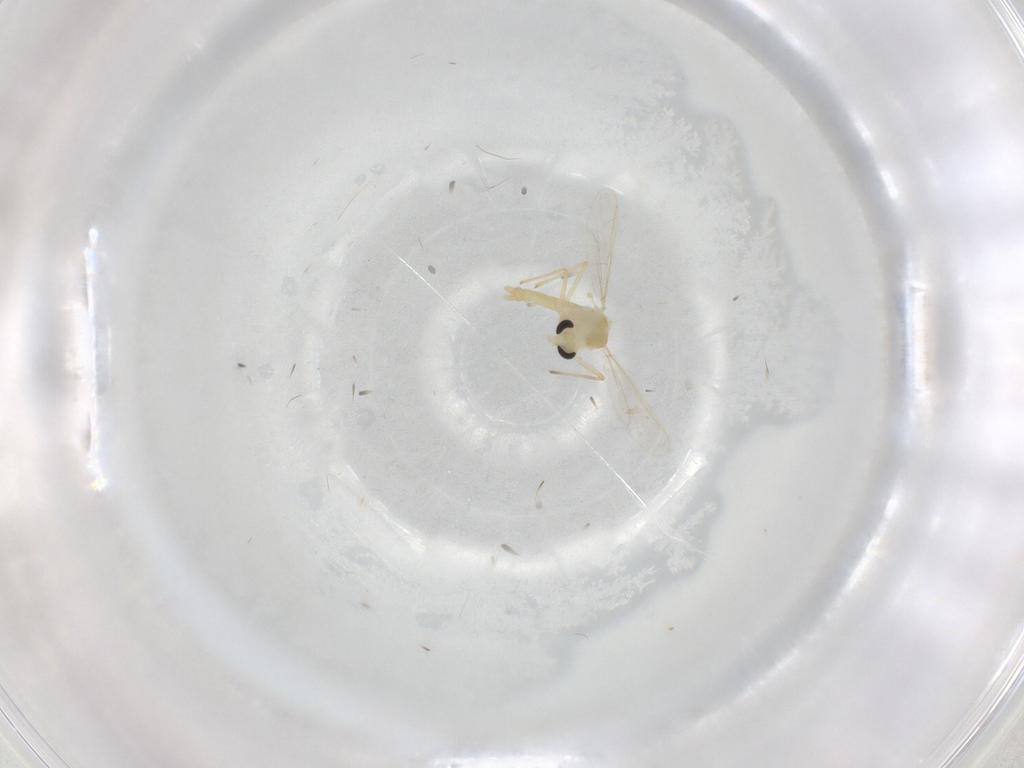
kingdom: Animalia
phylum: Arthropoda
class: Insecta
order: Diptera
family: Chironomidae
